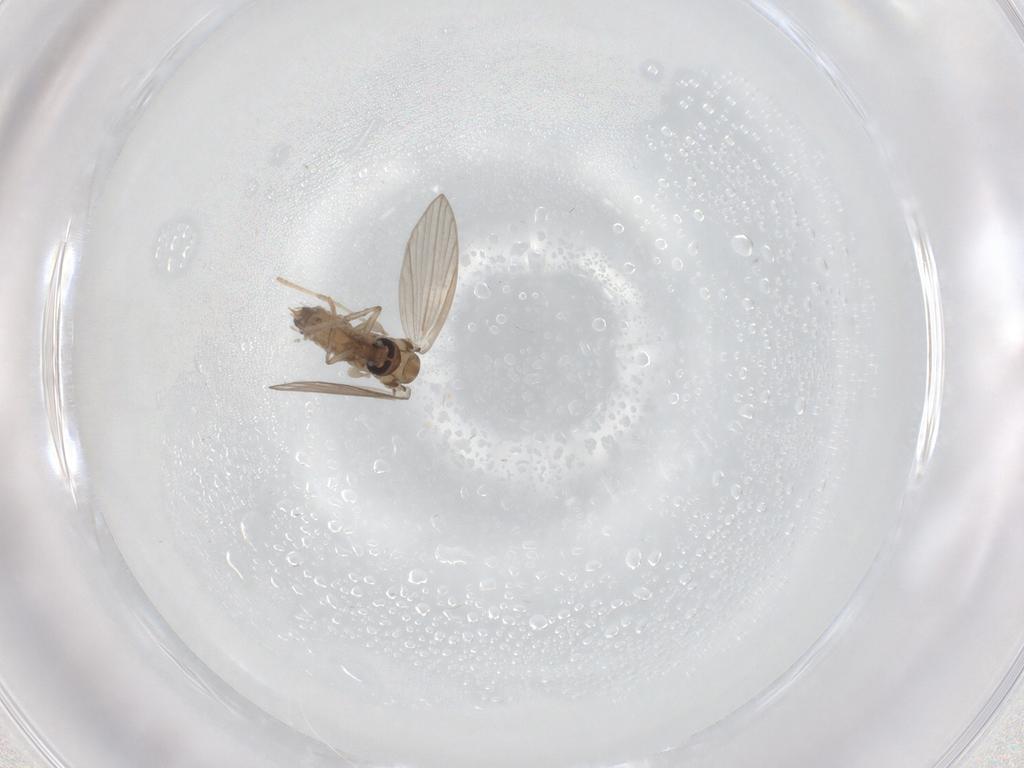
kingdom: Animalia
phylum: Arthropoda
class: Insecta
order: Diptera
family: Psychodidae
